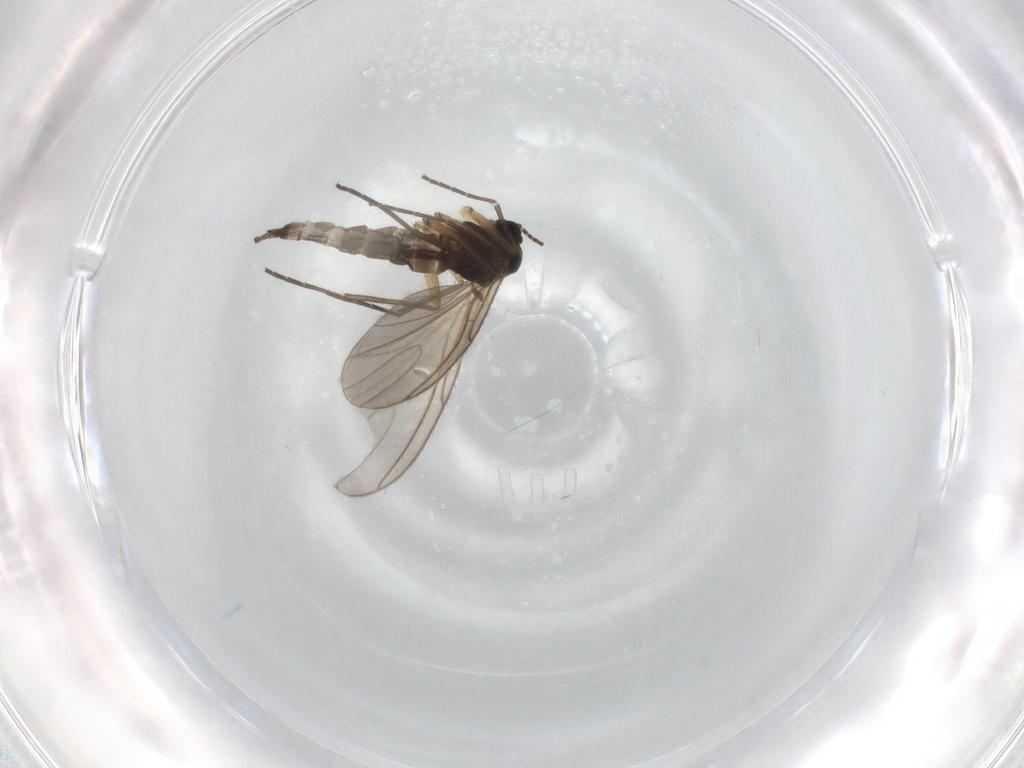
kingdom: Animalia
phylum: Arthropoda
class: Insecta
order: Diptera
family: Sciaridae
